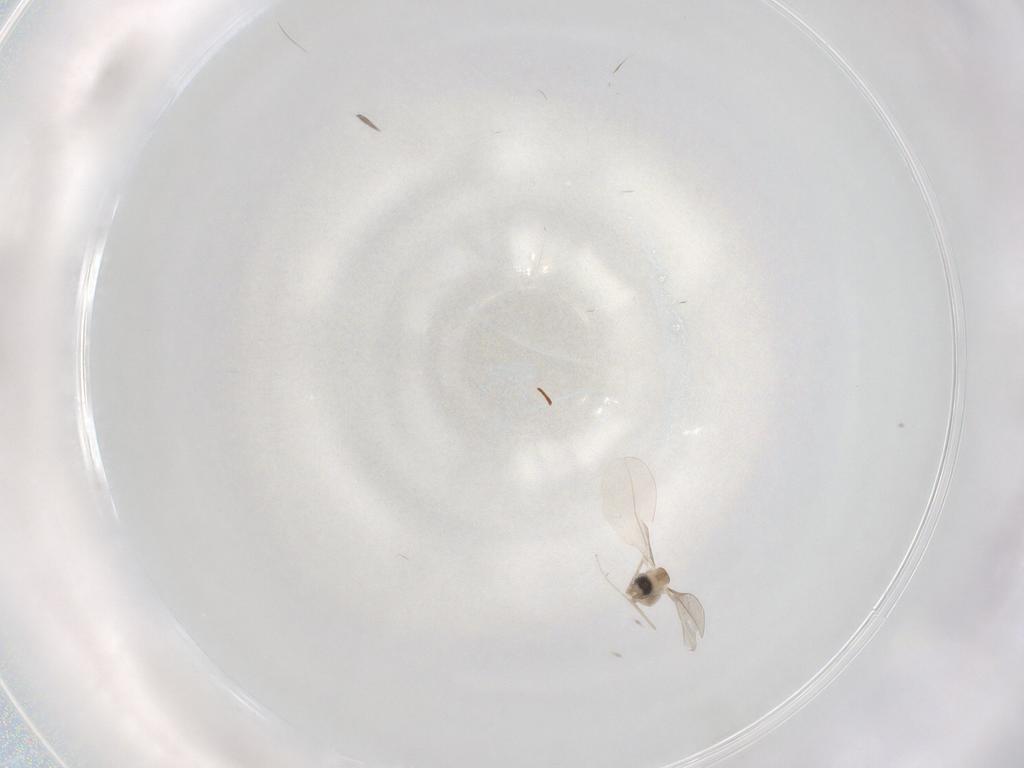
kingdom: Animalia
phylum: Arthropoda
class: Insecta
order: Diptera
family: Cecidomyiidae
